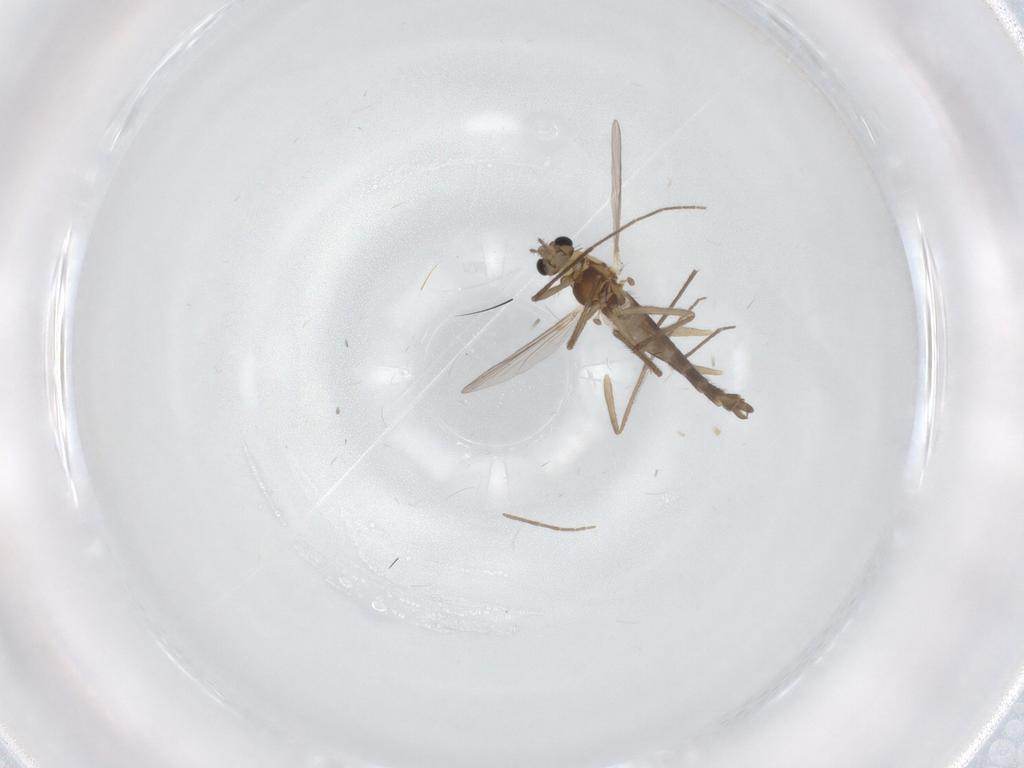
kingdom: Animalia
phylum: Arthropoda
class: Insecta
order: Diptera
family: Chironomidae
